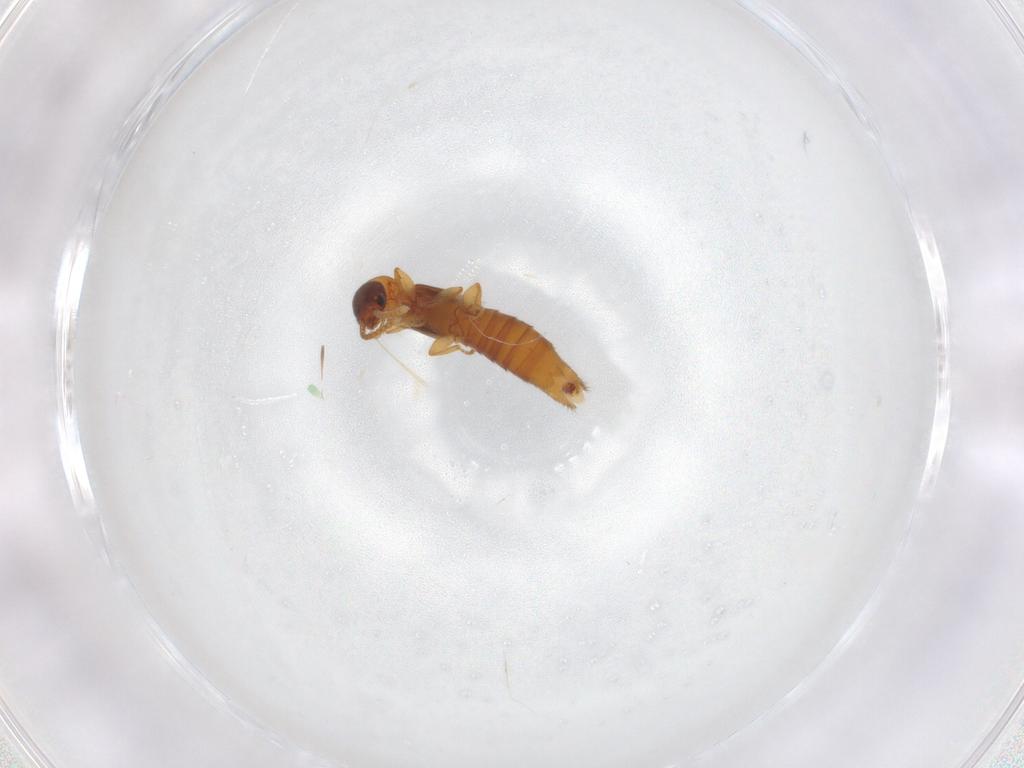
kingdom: Animalia
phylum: Arthropoda
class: Insecta
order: Coleoptera
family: Staphylinidae
